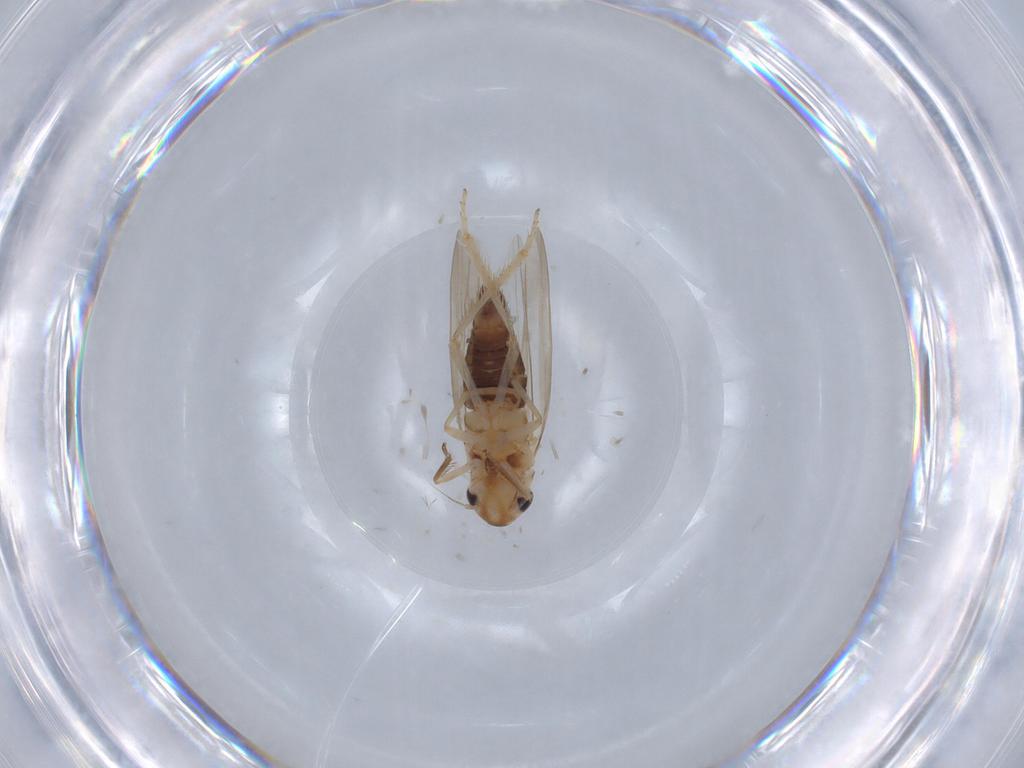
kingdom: Animalia
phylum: Arthropoda
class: Insecta
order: Hemiptera
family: Cicadellidae
